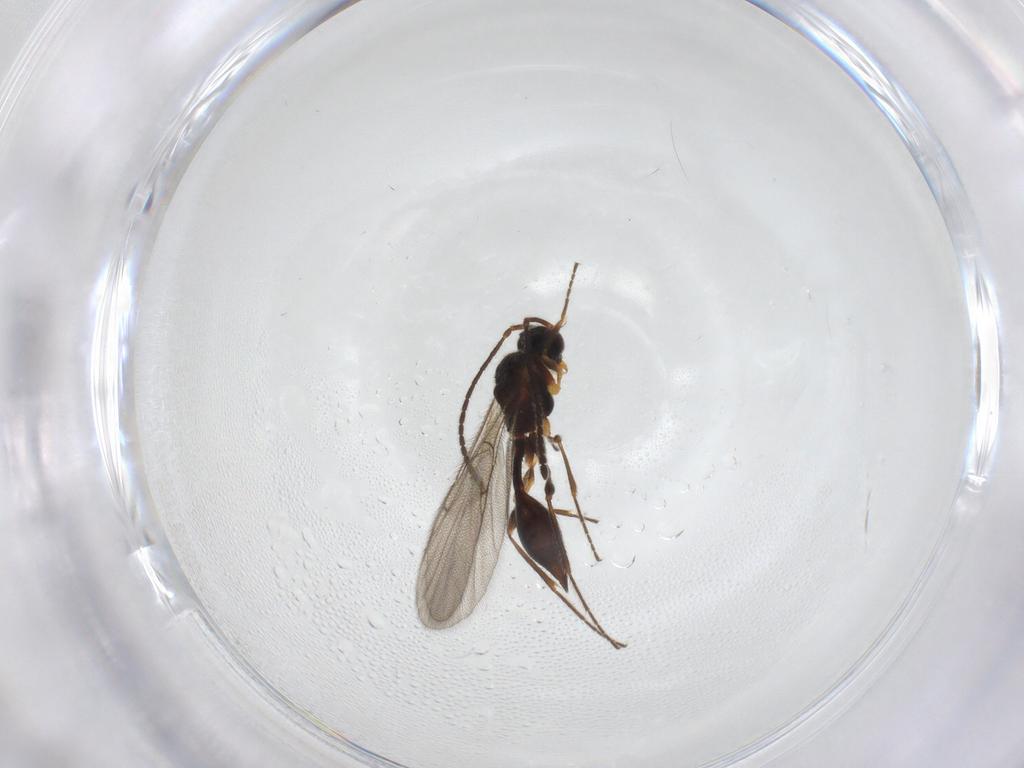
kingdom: Animalia
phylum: Arthropoda
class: Insecta
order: Hymenoptera
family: Diapriidae
